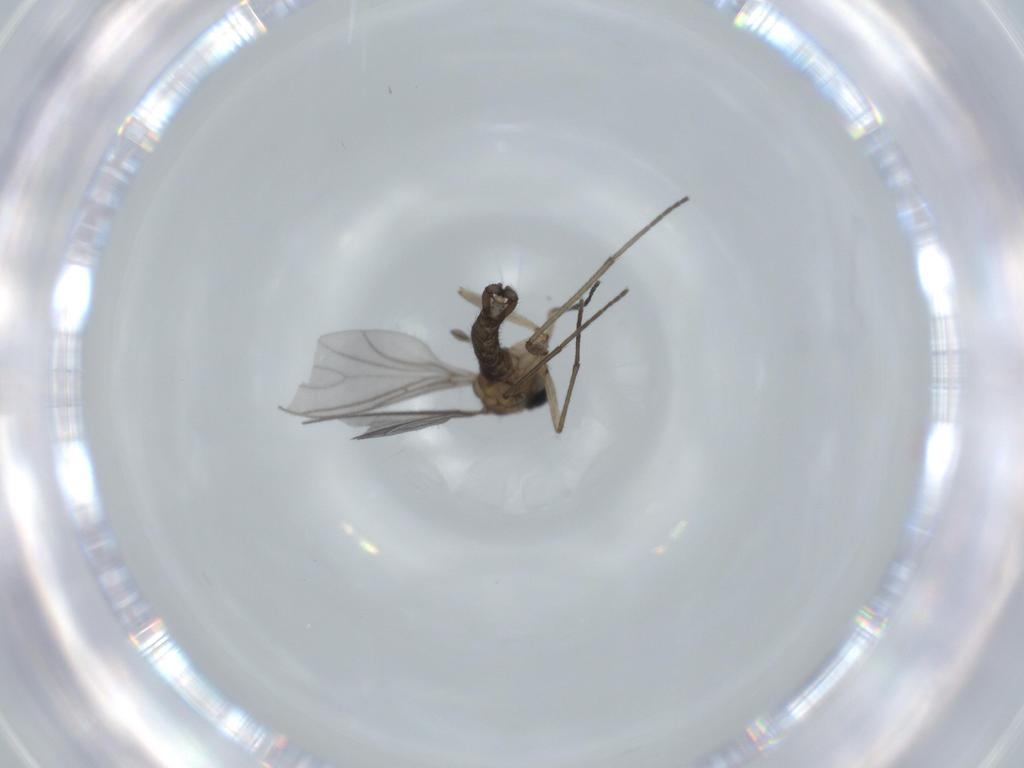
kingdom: Animalia
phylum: Arthropoda
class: Insecta
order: Diptera
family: Sciaridae
